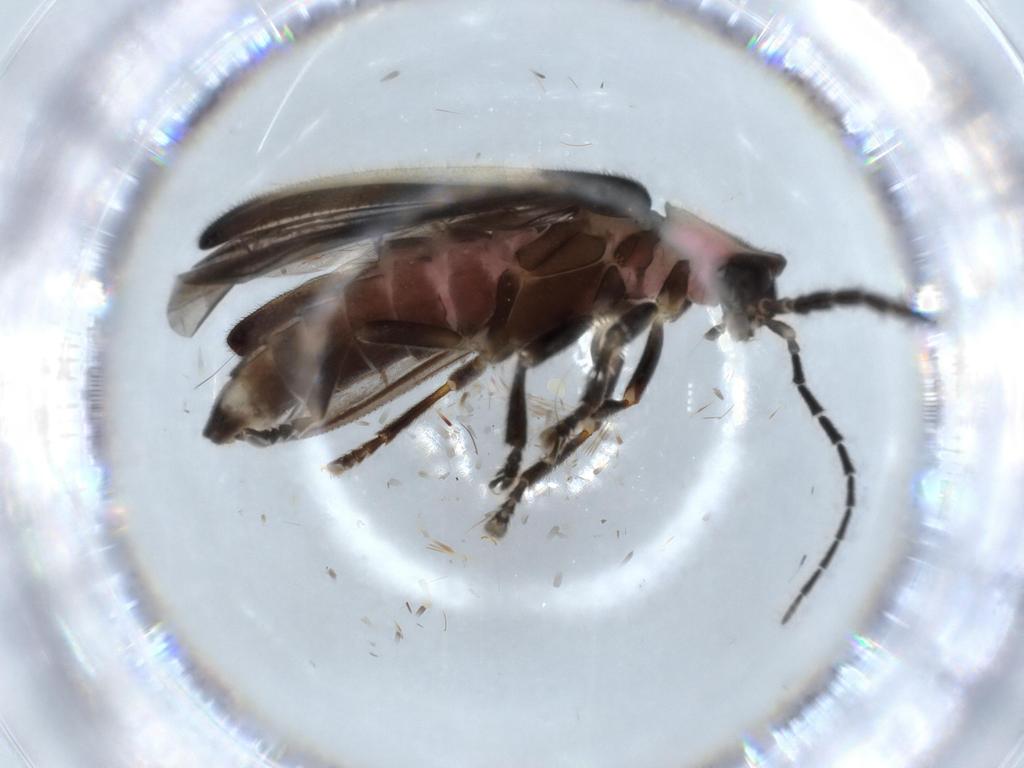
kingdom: Animalia
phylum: Arthropoda
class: Insecta
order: Coleoptera
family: Lampyridae
